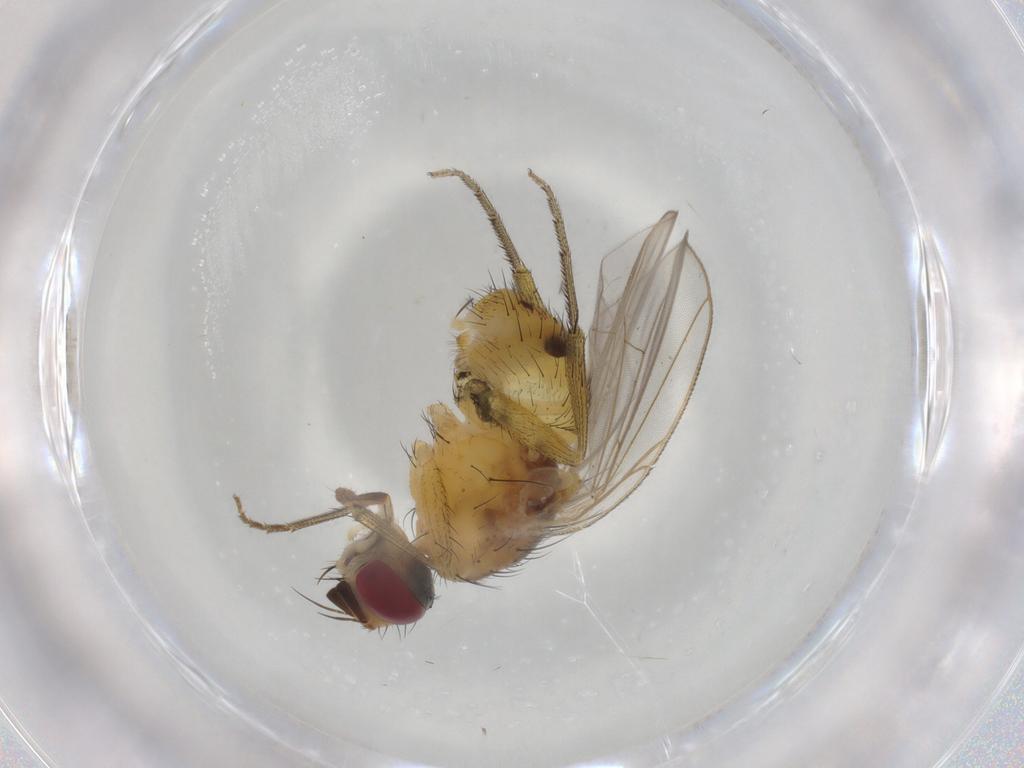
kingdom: Animalia
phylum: Arthropoda
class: Insecta
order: Diptera
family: Muscidae
